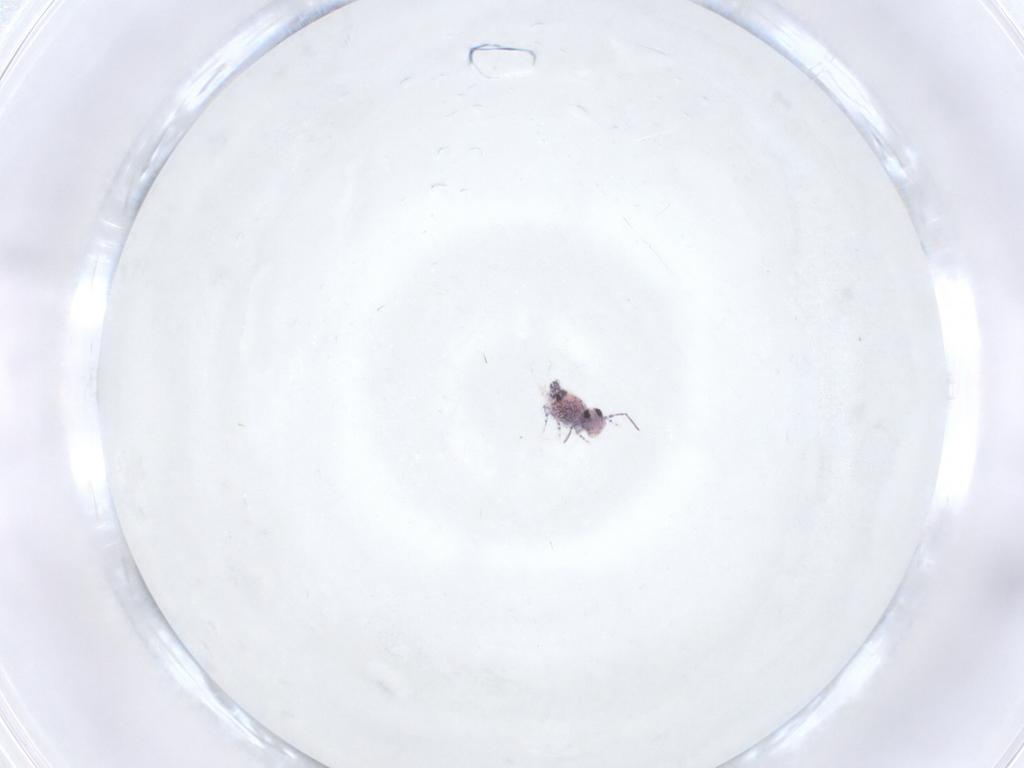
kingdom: Animalia
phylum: Arthropoda
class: Collembola
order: Symphypleona
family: Bourletiellidae
